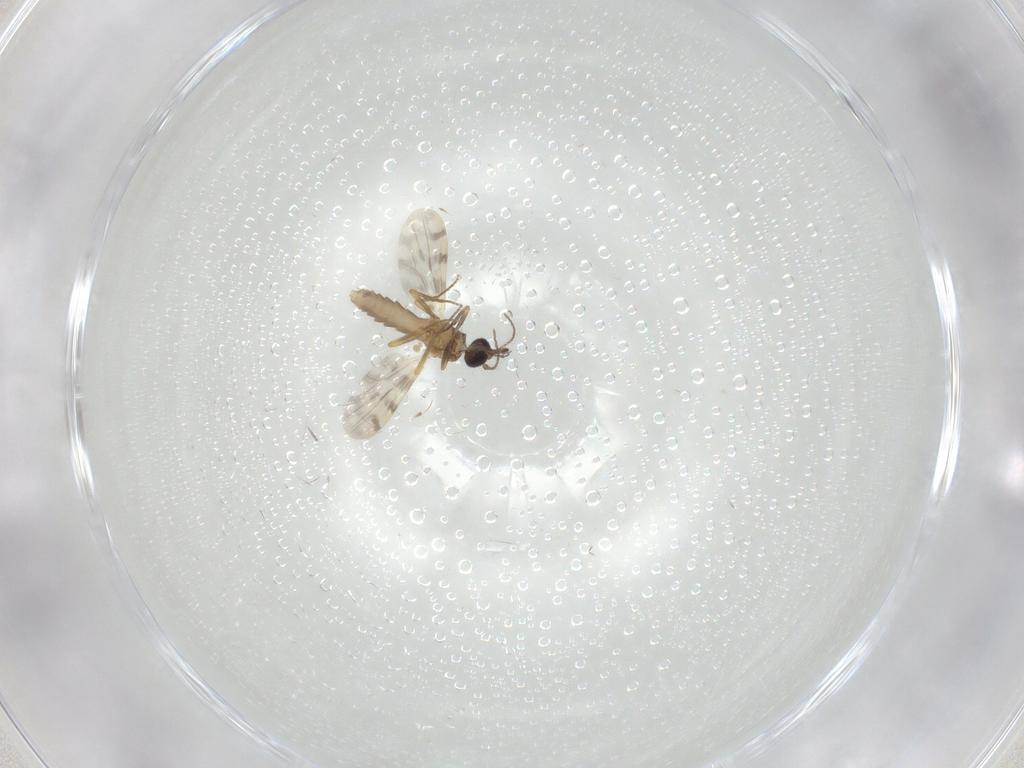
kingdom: Animalia
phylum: Arthropoda
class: Insecta
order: Diptera
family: Ceratopogonidae
